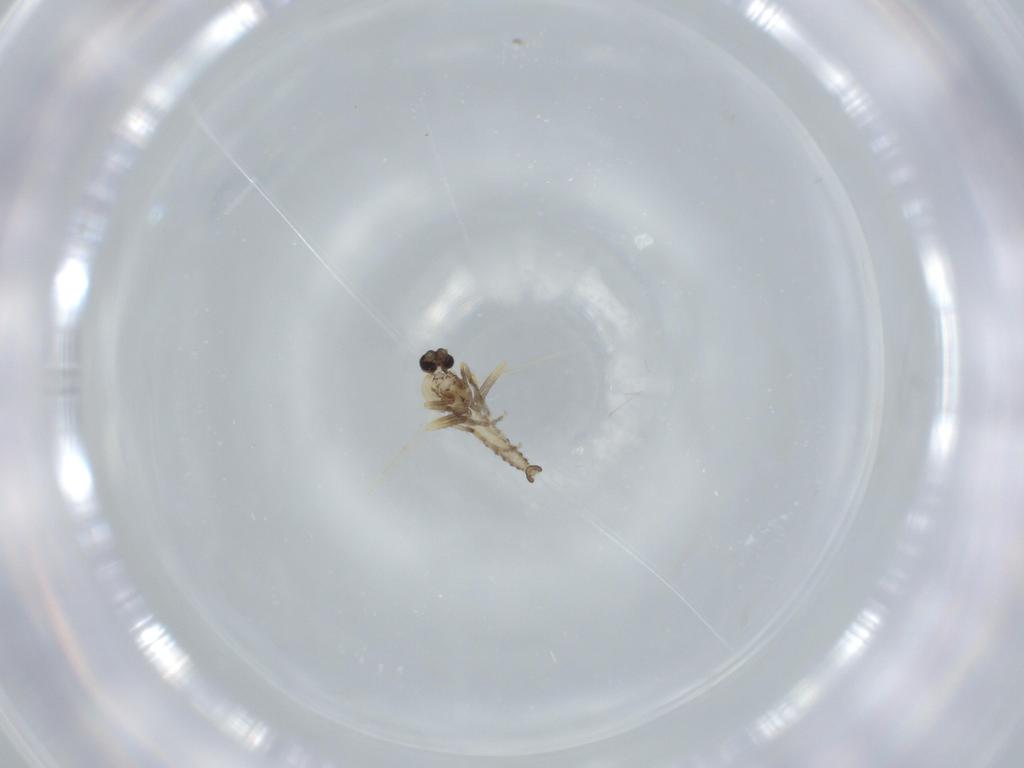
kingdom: Animalia
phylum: Arthropoda
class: Insecta
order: Diptera
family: Ceratopogonidae
